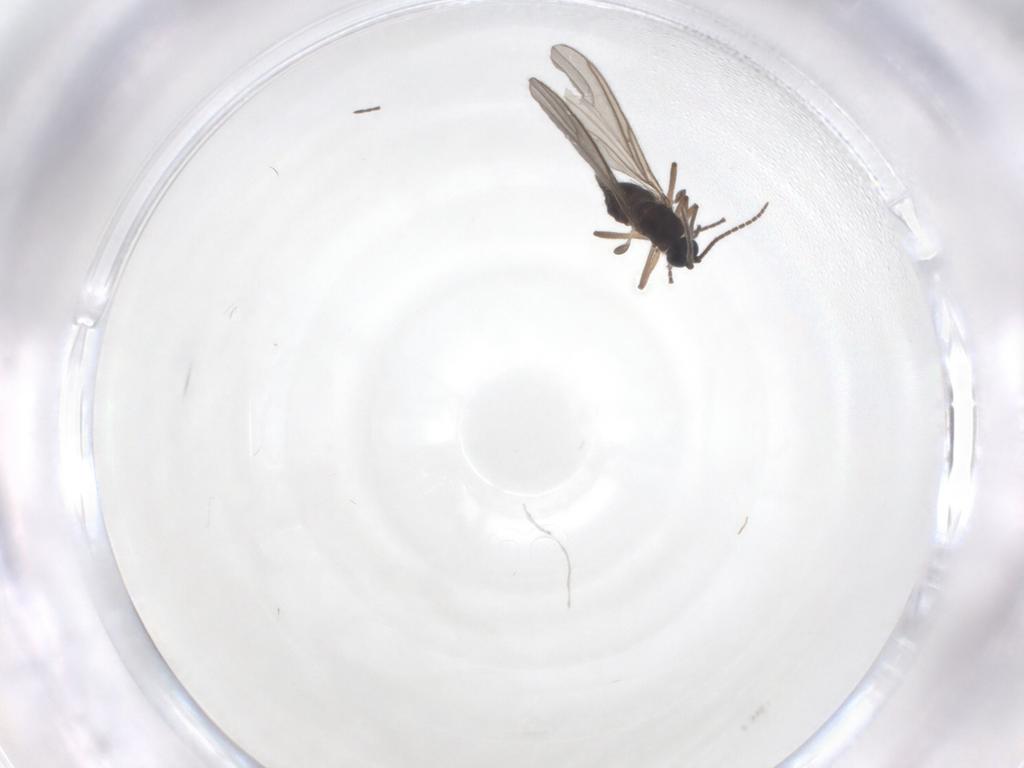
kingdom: Animalia
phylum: Arthropoda
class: Insecta
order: Diptera
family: Sciaridae
